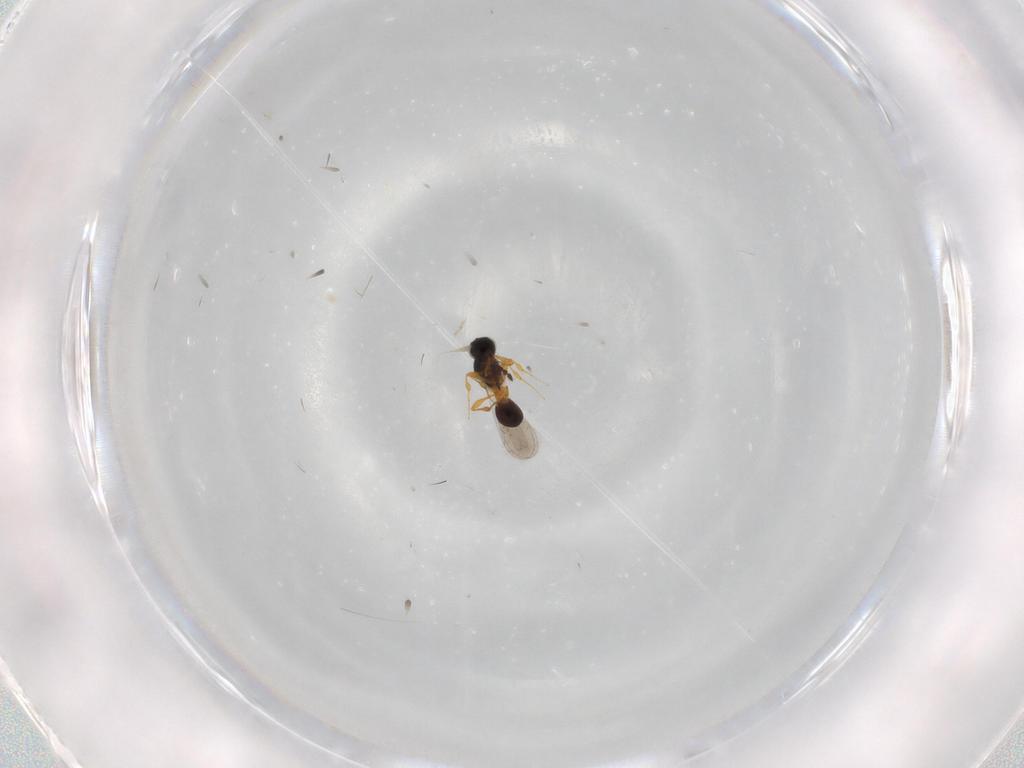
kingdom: Animalia
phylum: Arthropoda
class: Insecta
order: Hymenoptera
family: Platygastridae
